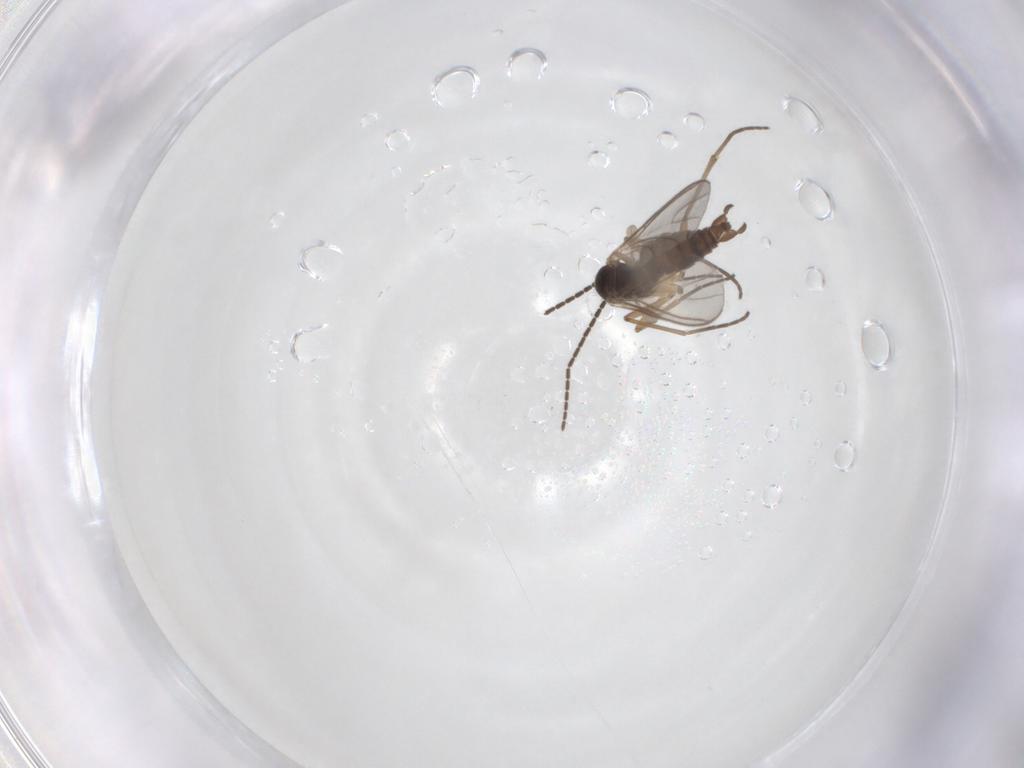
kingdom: Animalia
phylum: Arthropoda
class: Insecta
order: Diptera
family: Sciaridae
